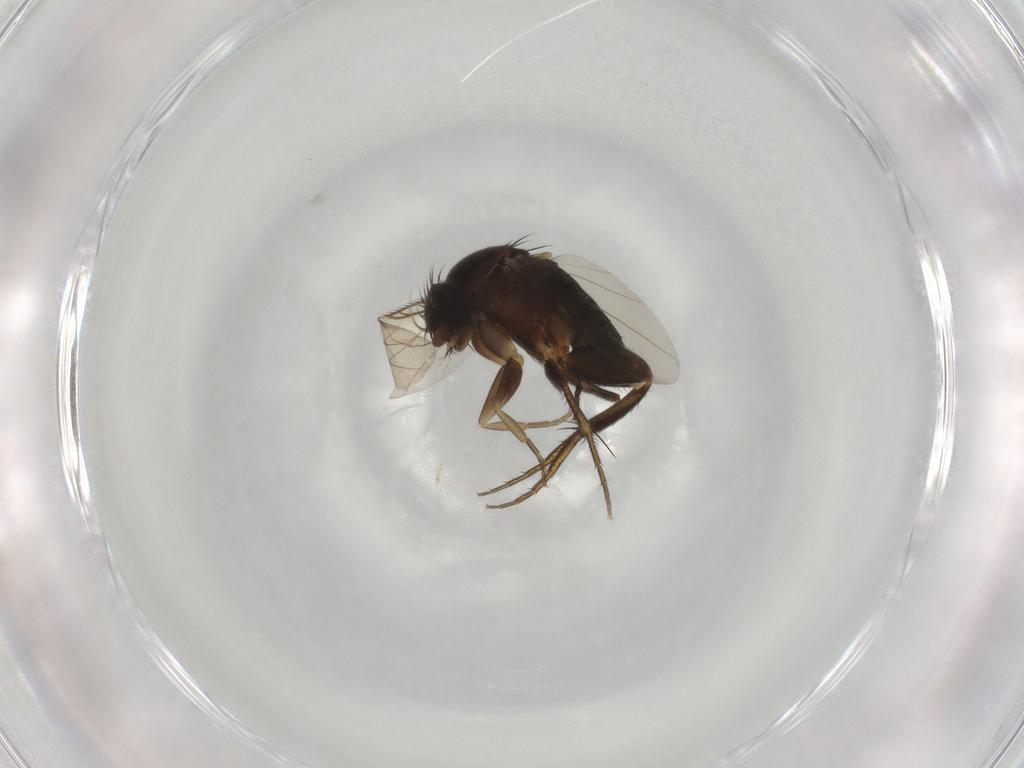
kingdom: Animalia
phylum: Arthropoda
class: Insecta
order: Diptera
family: Phoridae
